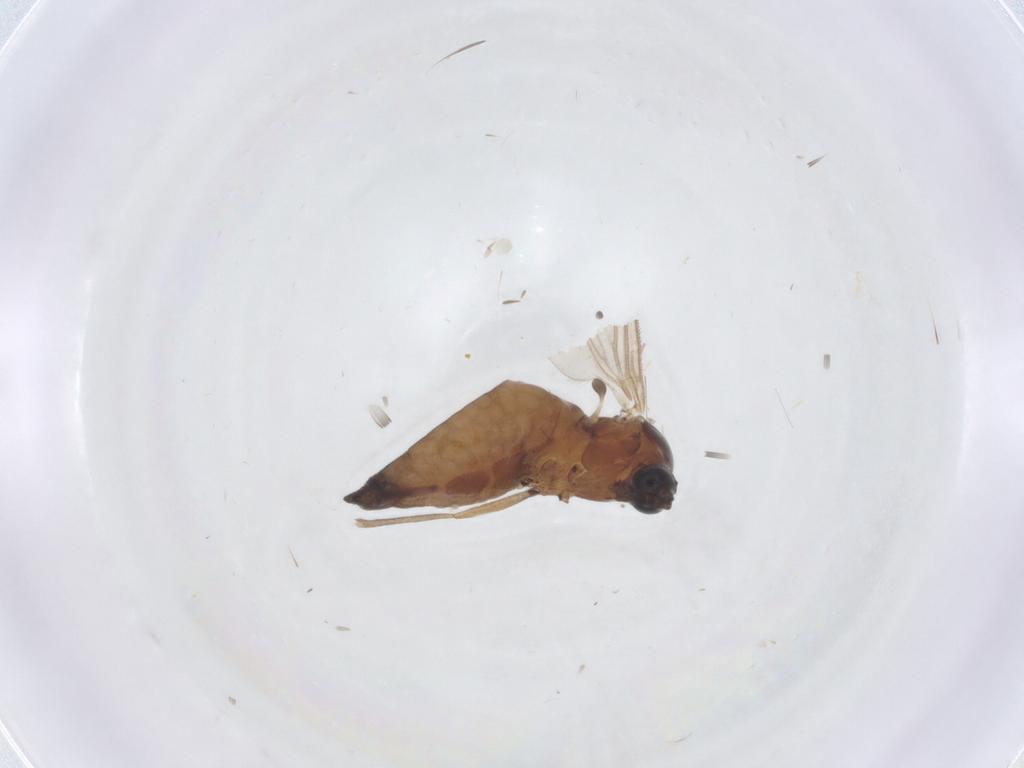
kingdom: Animalia
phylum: Arthropoda
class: Insecta
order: Diptera
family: Sciaridae
